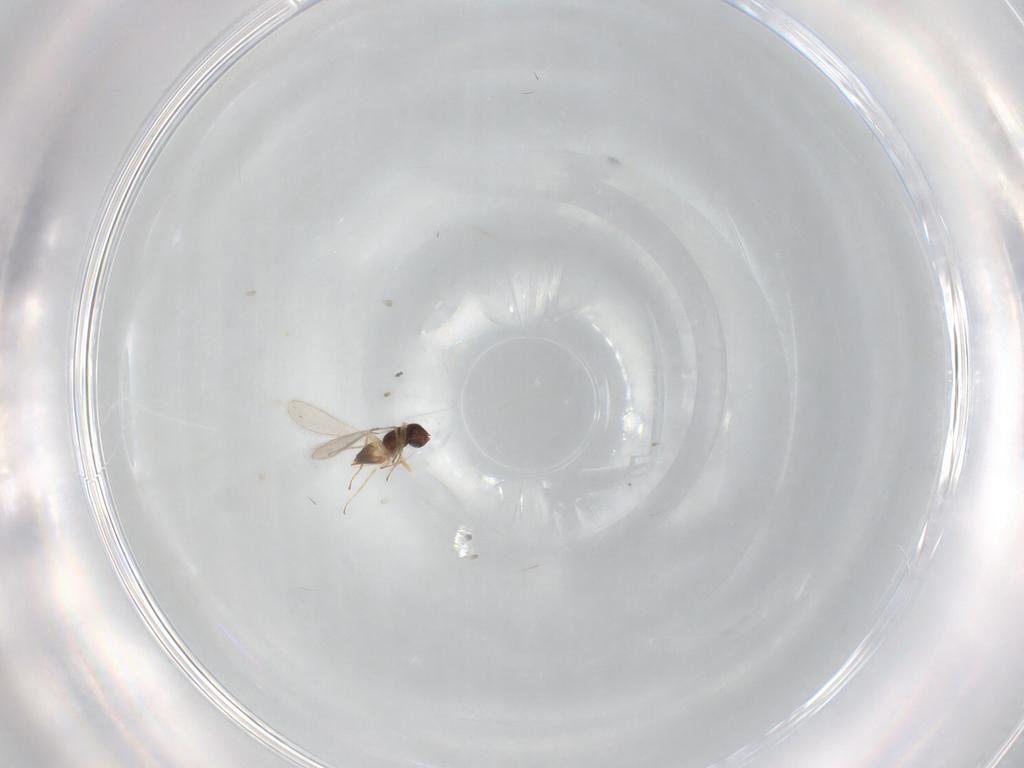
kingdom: Animalia
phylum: Arthropoda
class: Insecta
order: Hymenoptera
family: Mymaridae
